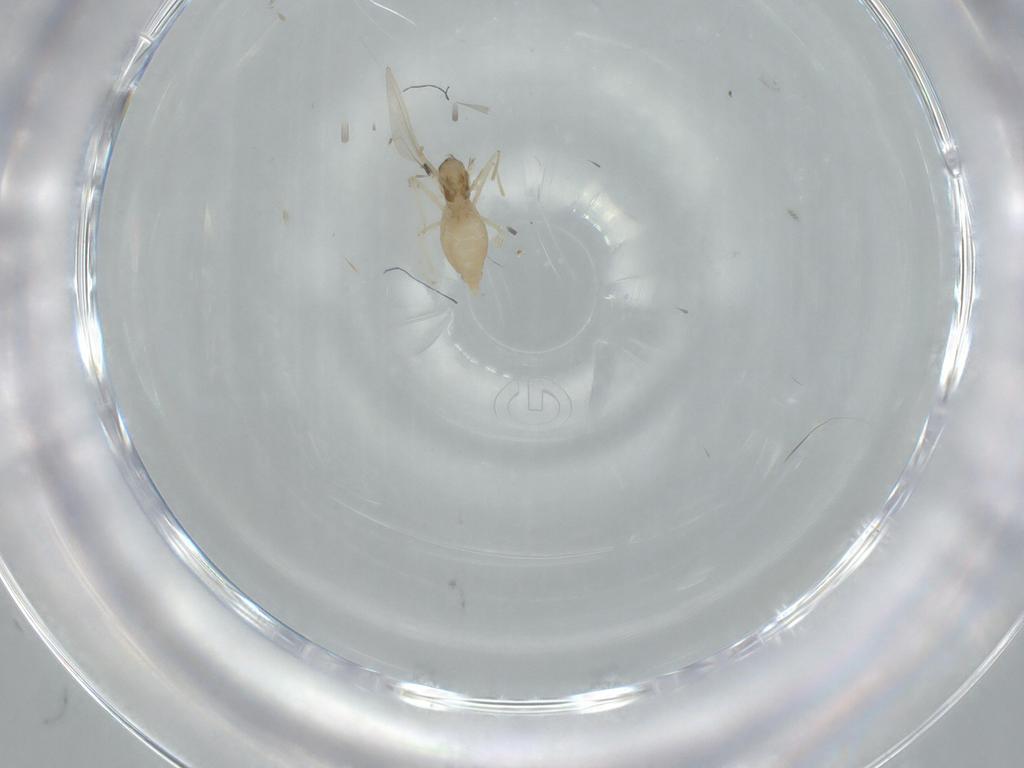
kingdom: Animalia
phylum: Arthropoda
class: Insecta
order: Diptera
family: Cecidomyiidae
